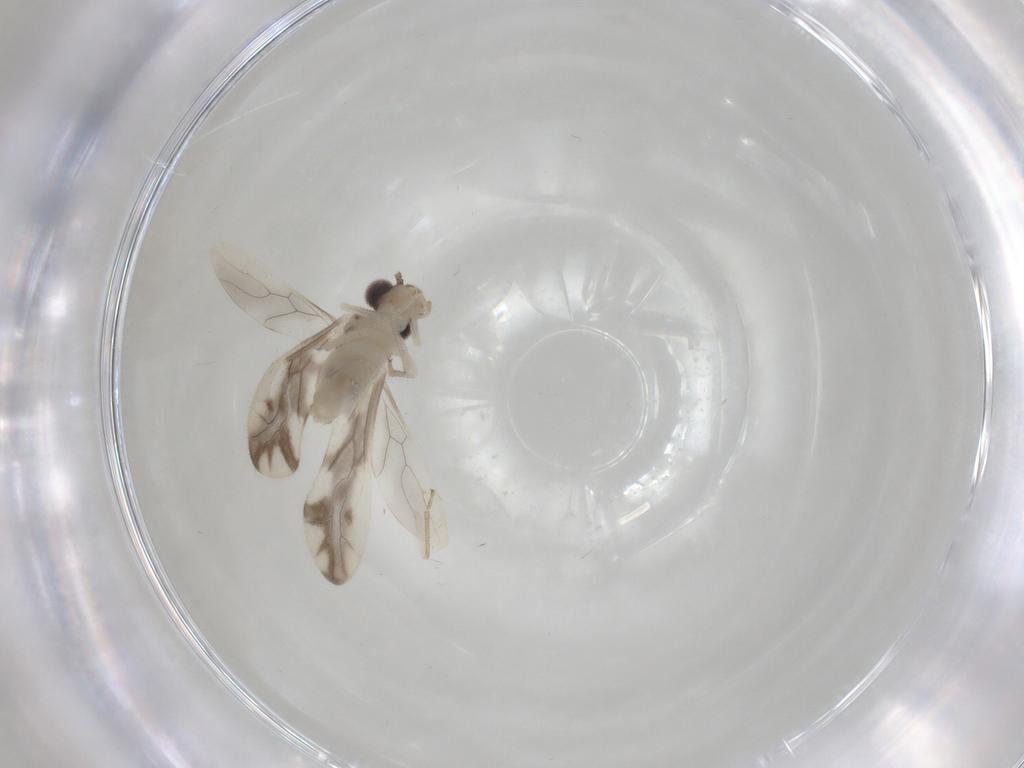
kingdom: Animalia
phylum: Arthropoda
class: Insecta
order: Psocodea
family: Caeciliusidae
